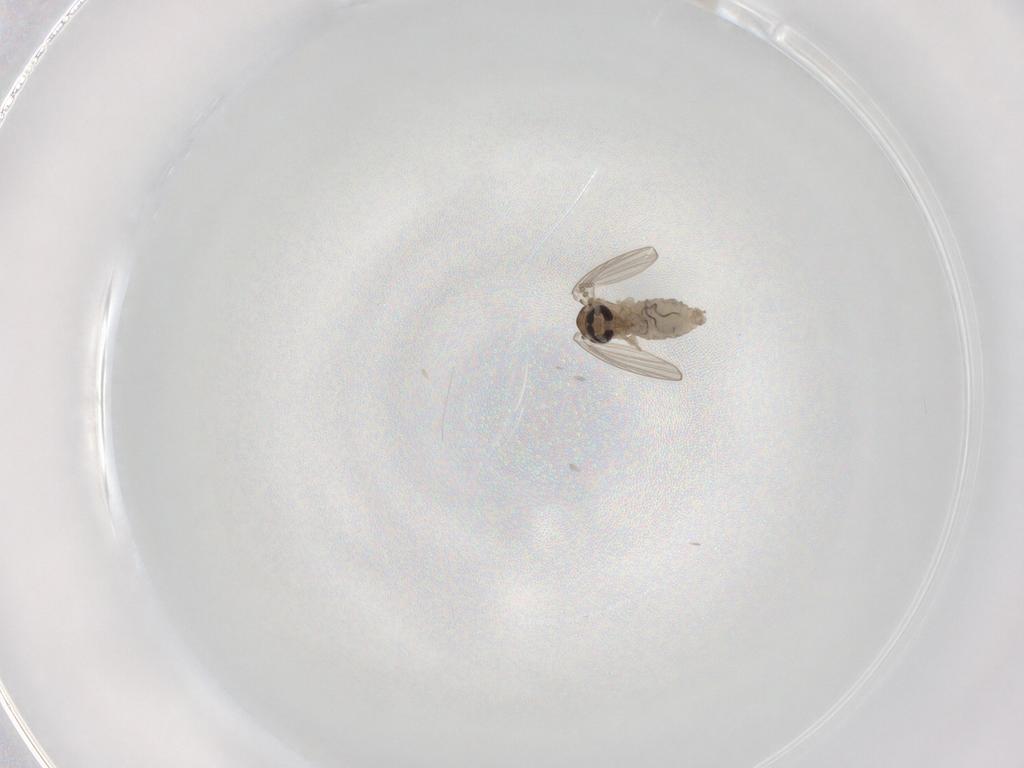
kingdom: Animalia
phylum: Arthropoda
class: Insecta
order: Diptera
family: Psychodidae
